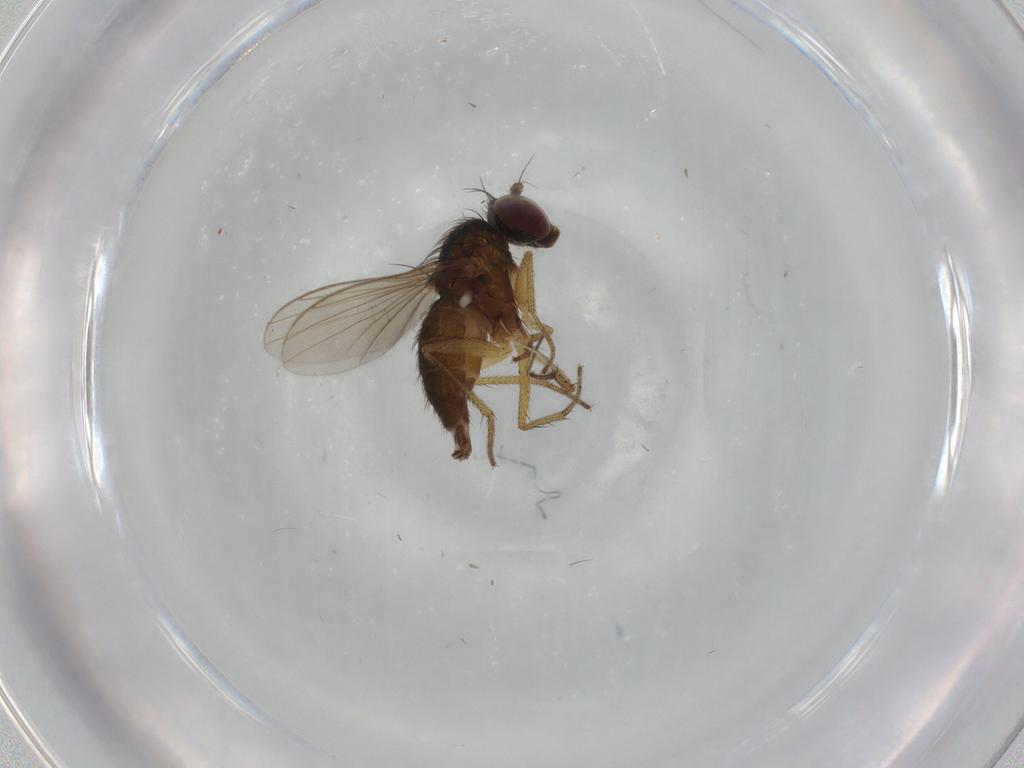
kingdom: Animalia
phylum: Arthropoda
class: Insecta
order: Diptera
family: Dolichopodidae
